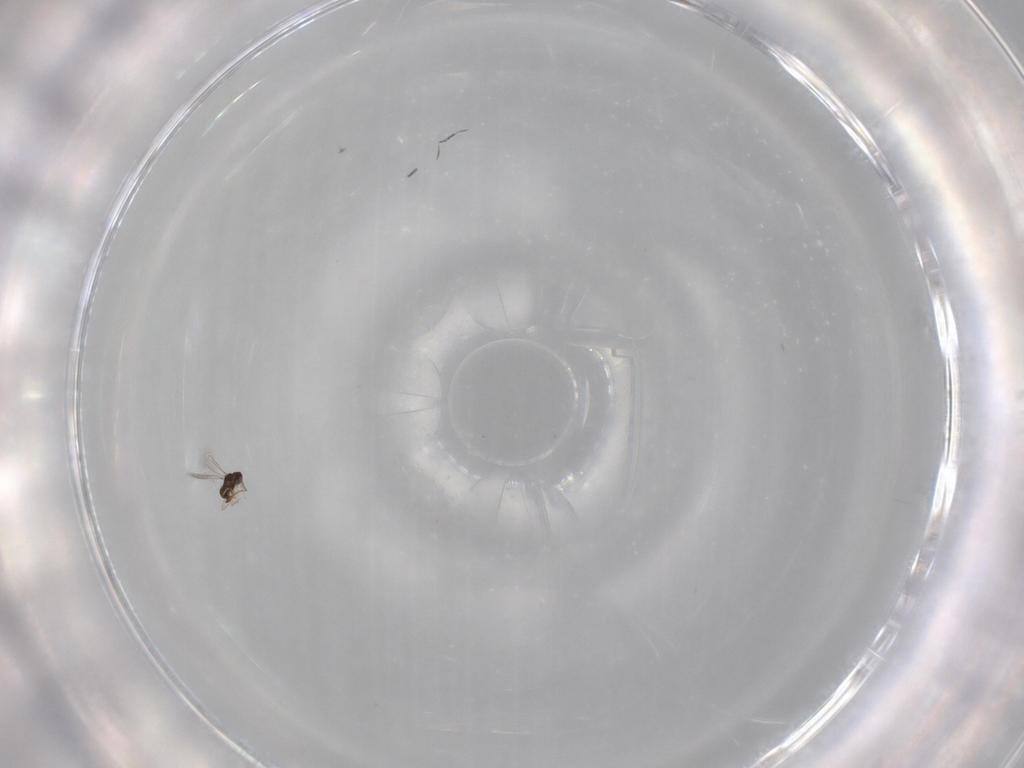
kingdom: Animalia
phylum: Arthropoda
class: Insecta
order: Hymenoptera
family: Mymaridae
